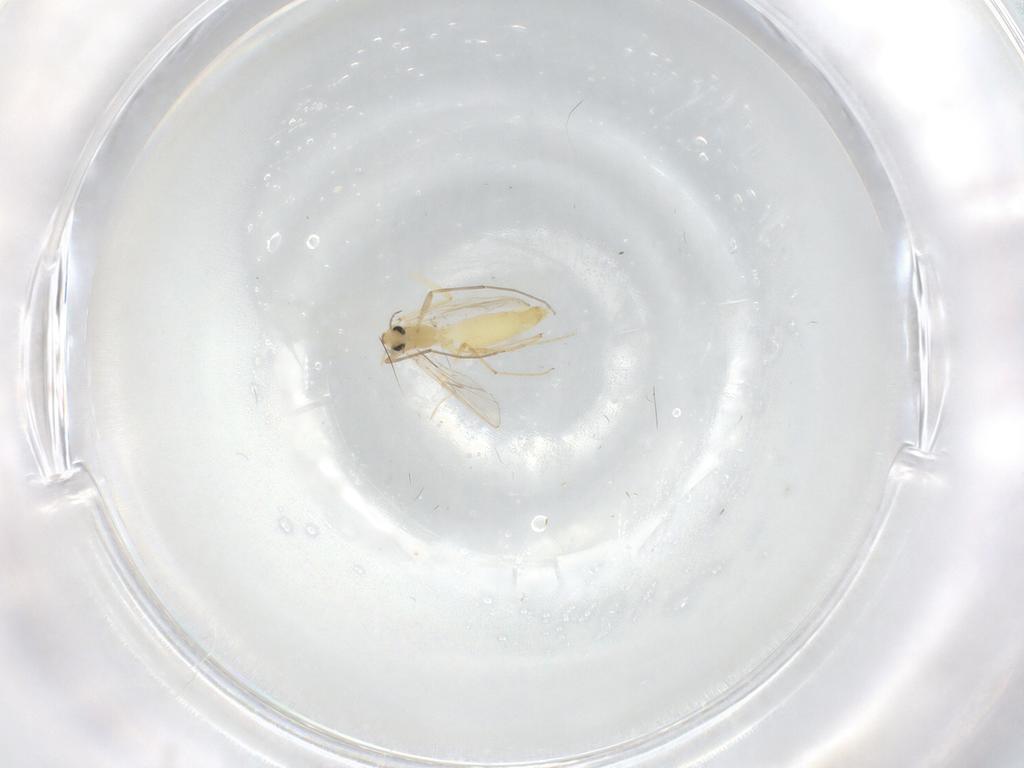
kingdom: Animalia
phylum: Arthropoda
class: Insecta
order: Diptera
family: Chironomidae
